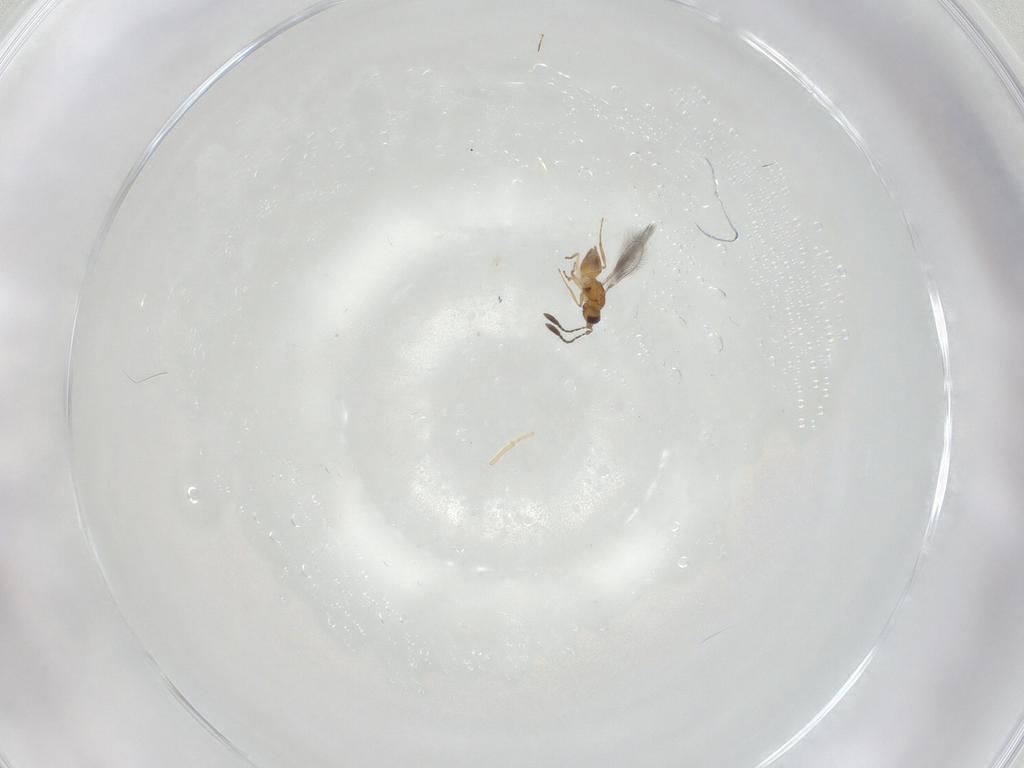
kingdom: Animalia
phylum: Arthropoda
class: Insecta
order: Hymenoptera
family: Mymaridae
